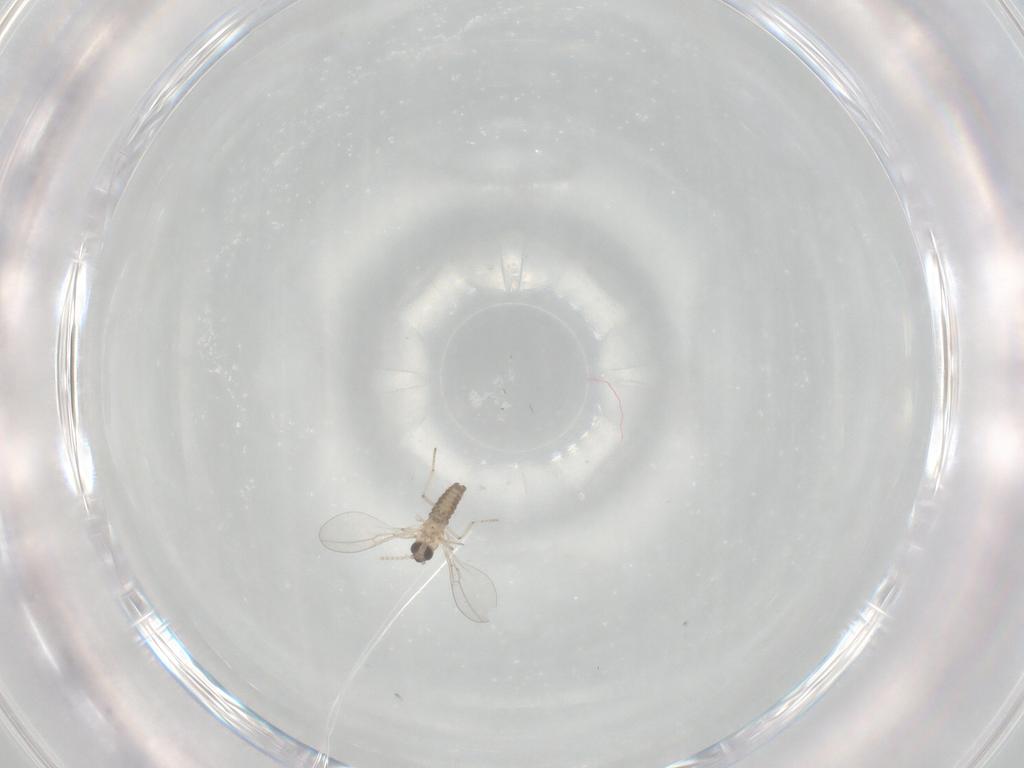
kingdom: Animalia
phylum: Arthropoda
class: Insecta
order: Diptera
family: Cecidomyiidae
